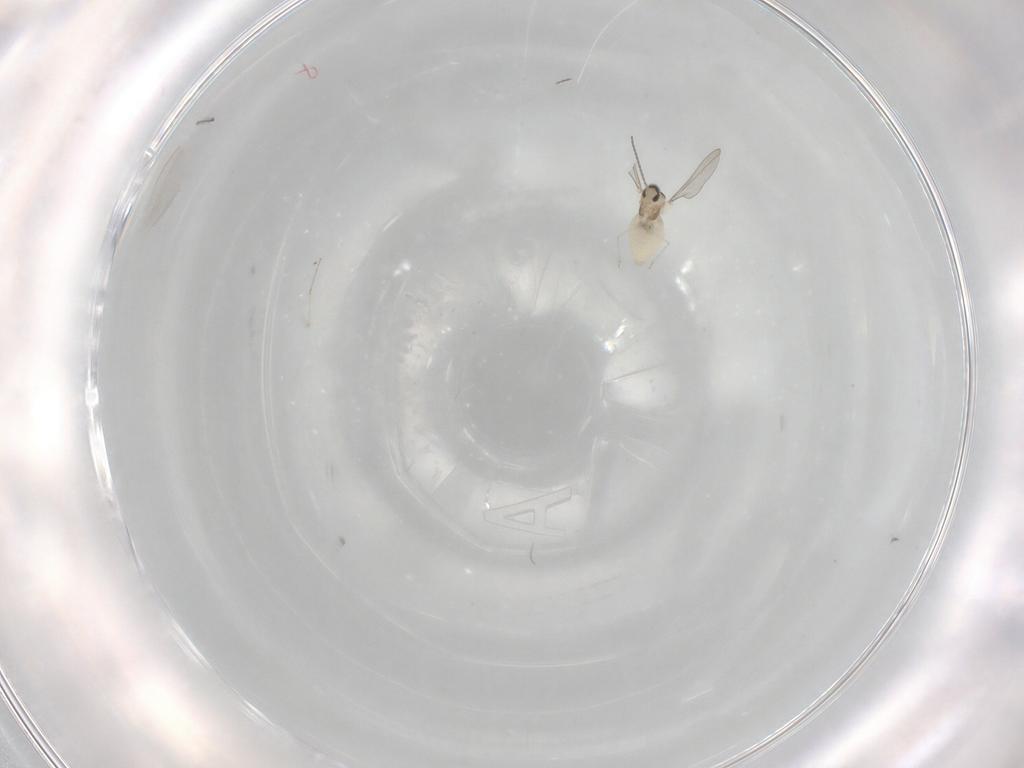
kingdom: Animalia
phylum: Arthropoda
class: Insecta
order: Diptera
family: Cecidomyiidae
